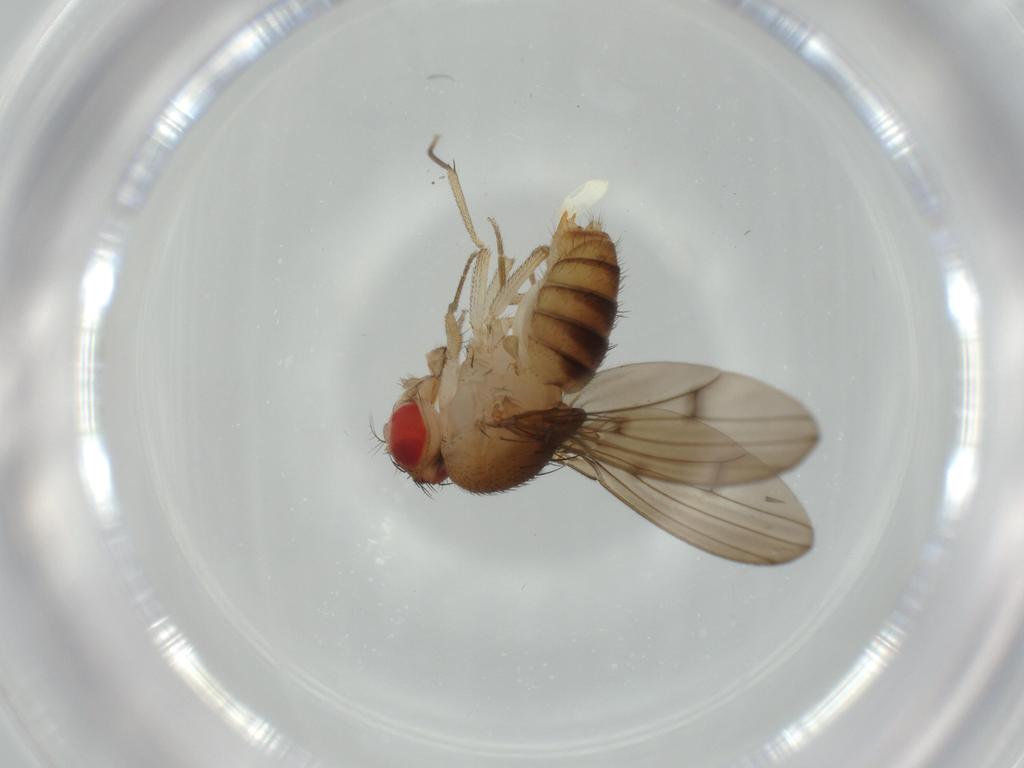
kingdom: Animalia
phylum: Arthropoda
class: Insecta
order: Diptera
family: Drosophilidae
